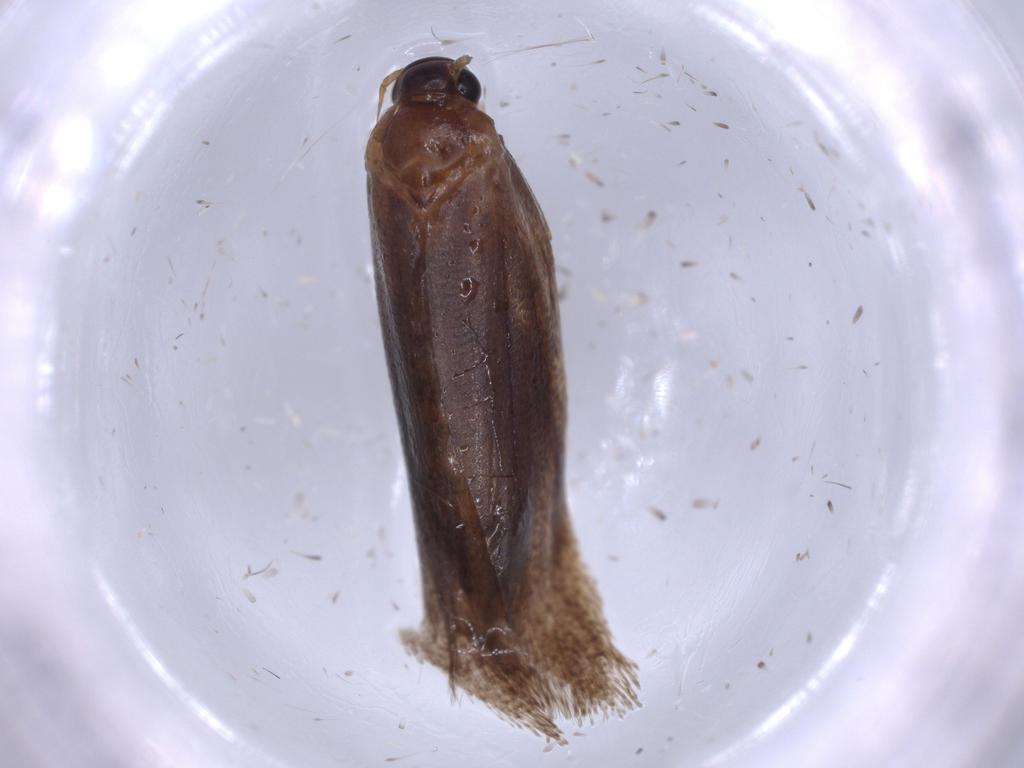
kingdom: Animalia
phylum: Arthropoda
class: Insecta
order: Lepidoptera
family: Oecophoridae
